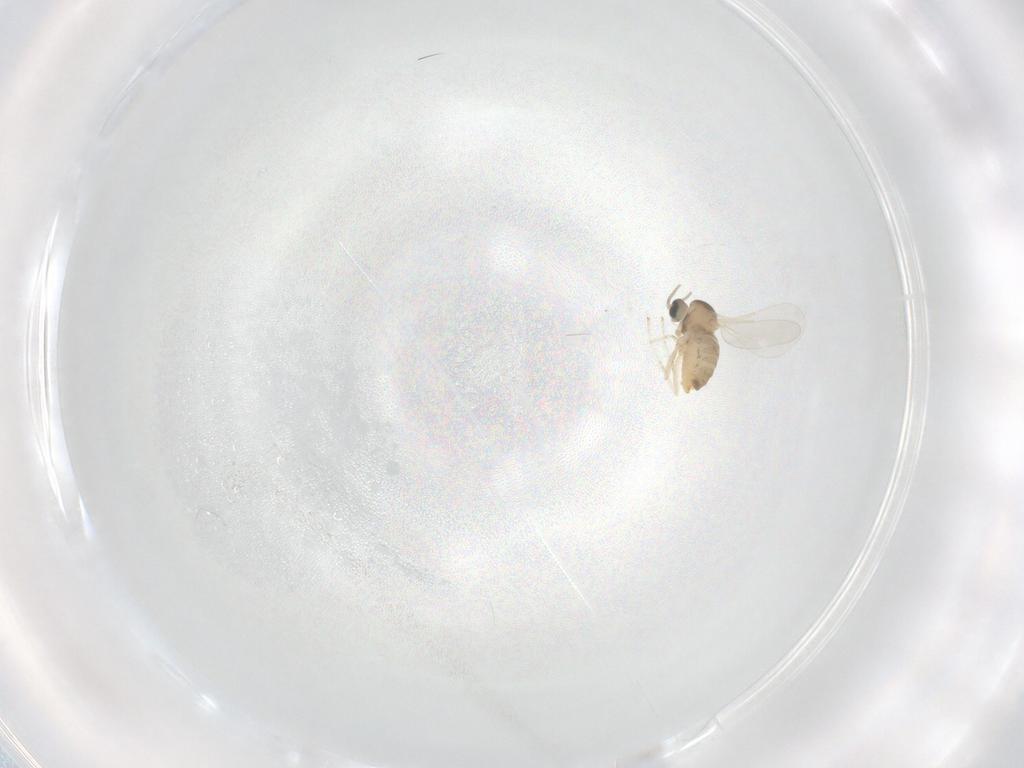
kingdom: Animalia
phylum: Arthropoda
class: Insecta
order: Diptera
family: Cecidomyiidae
